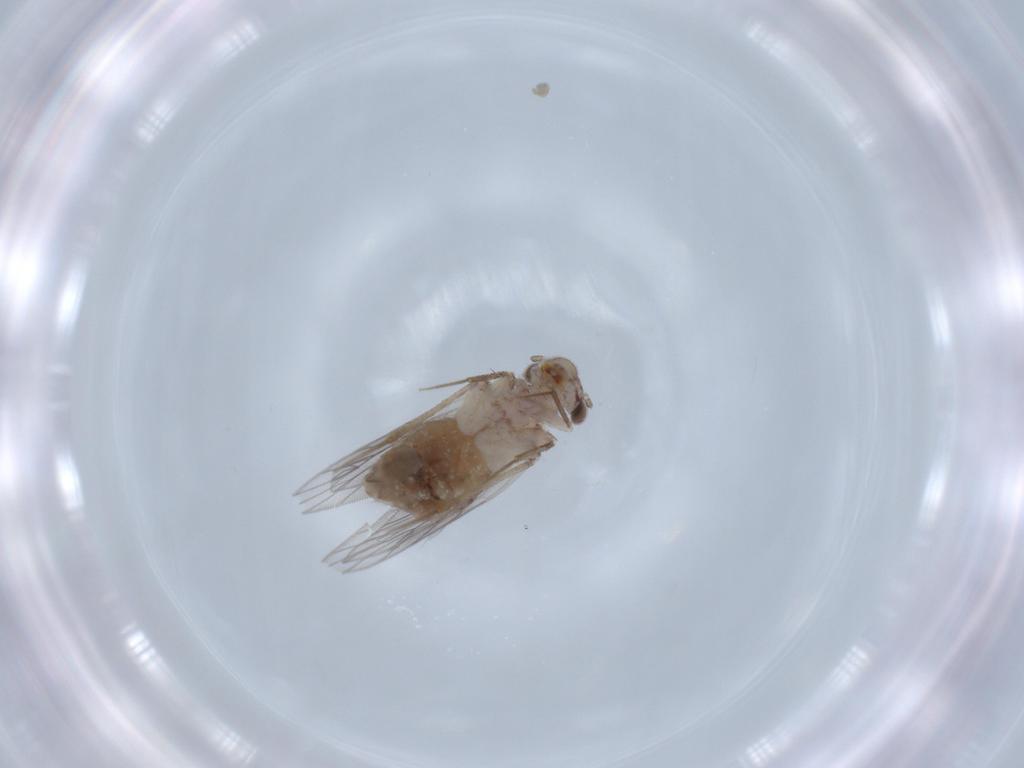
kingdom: Animalia
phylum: Arthropoda
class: Insecta
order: Psocodea
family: Lepidopsocidae
